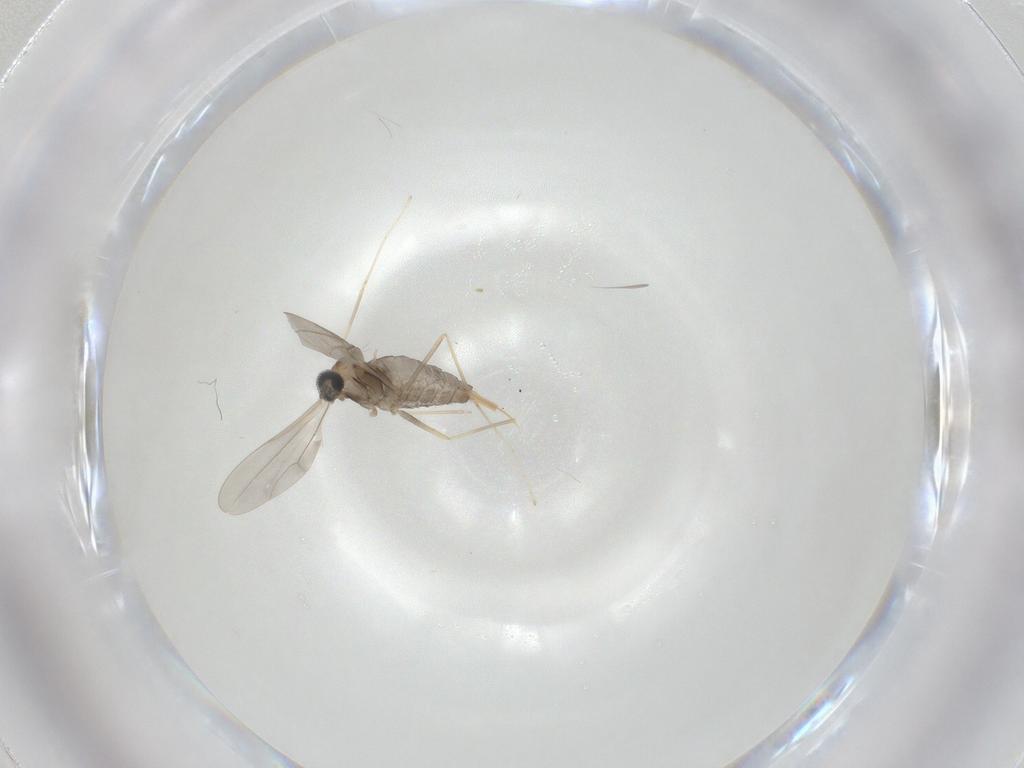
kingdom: Animalia
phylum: Arthropoda
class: Insecta
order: Diptera
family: Cecidomyiidae
